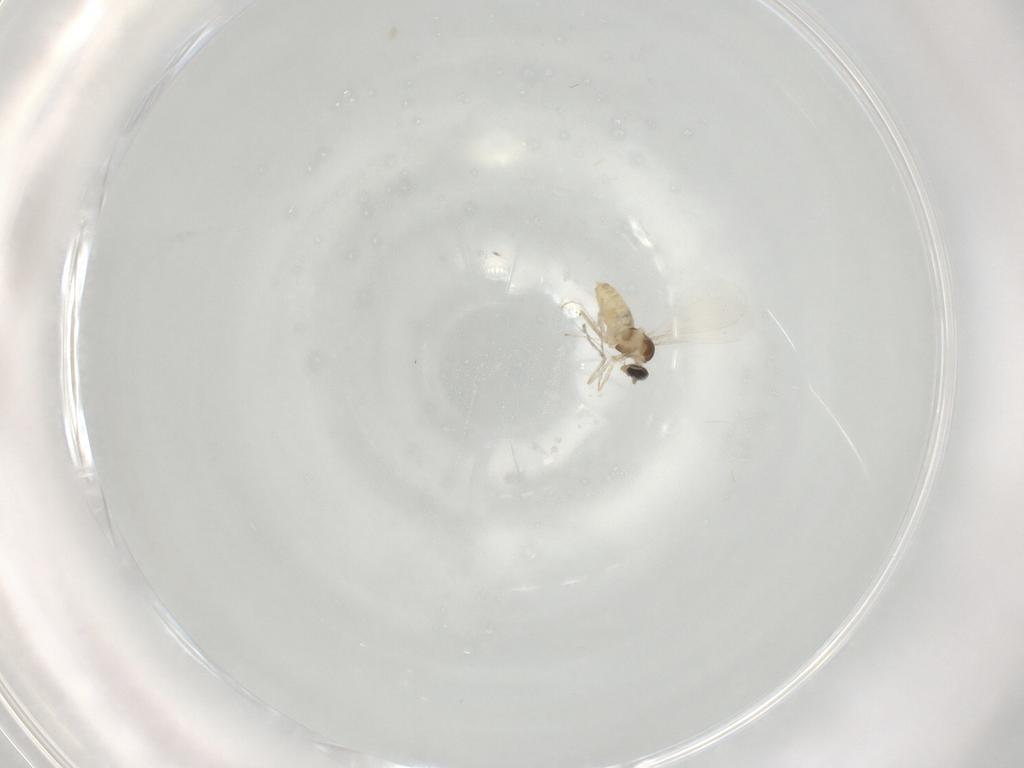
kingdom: Animalia
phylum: Arthropoda
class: Insecta
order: Diptera
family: Cecidomyiidae
